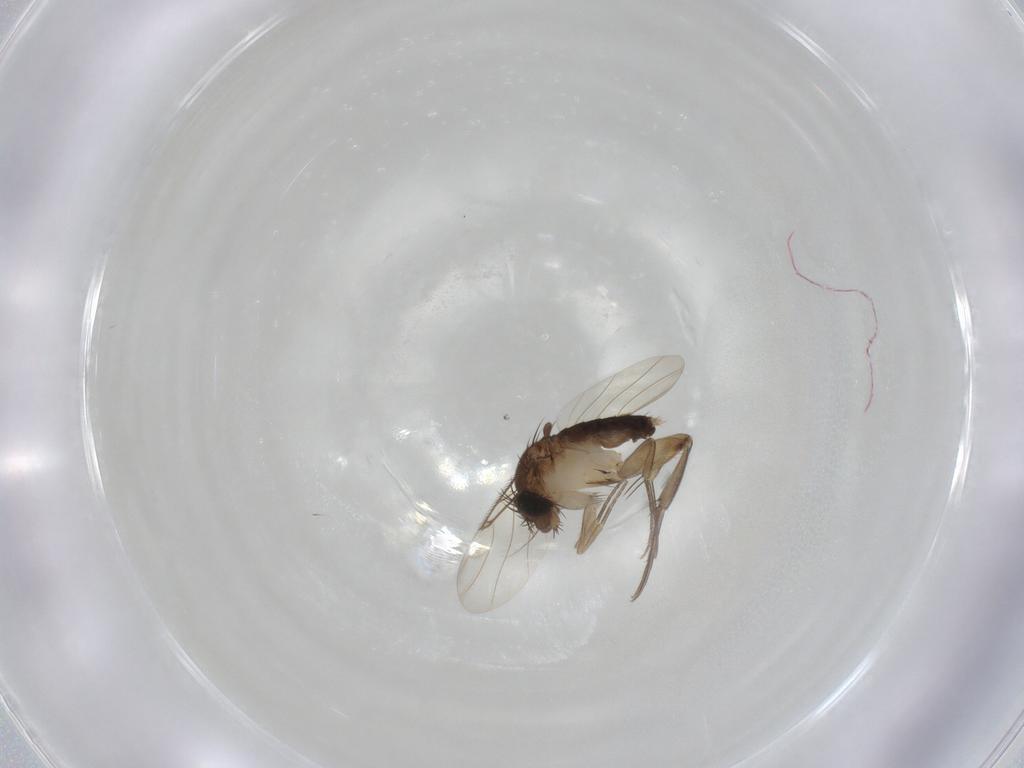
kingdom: Animalia
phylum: Arthropoda
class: Insecta
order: Diptera
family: Phoridae
